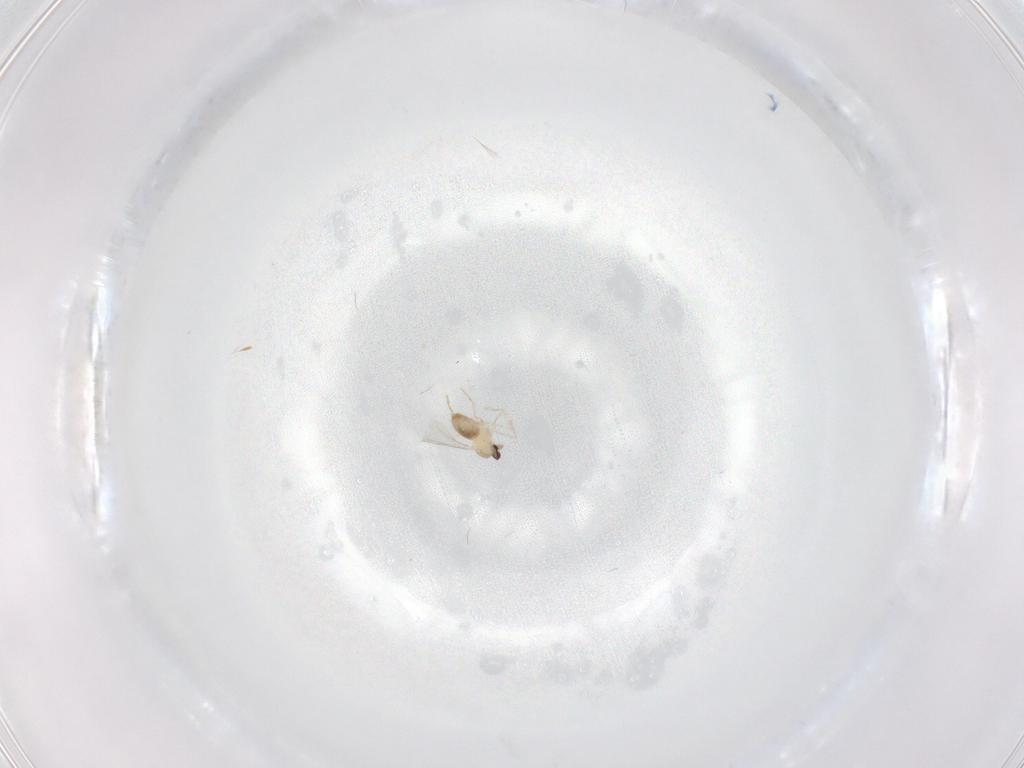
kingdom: Animalia
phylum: Arthropoda
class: Insecta
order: Diptera
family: Cecidomyiidae
